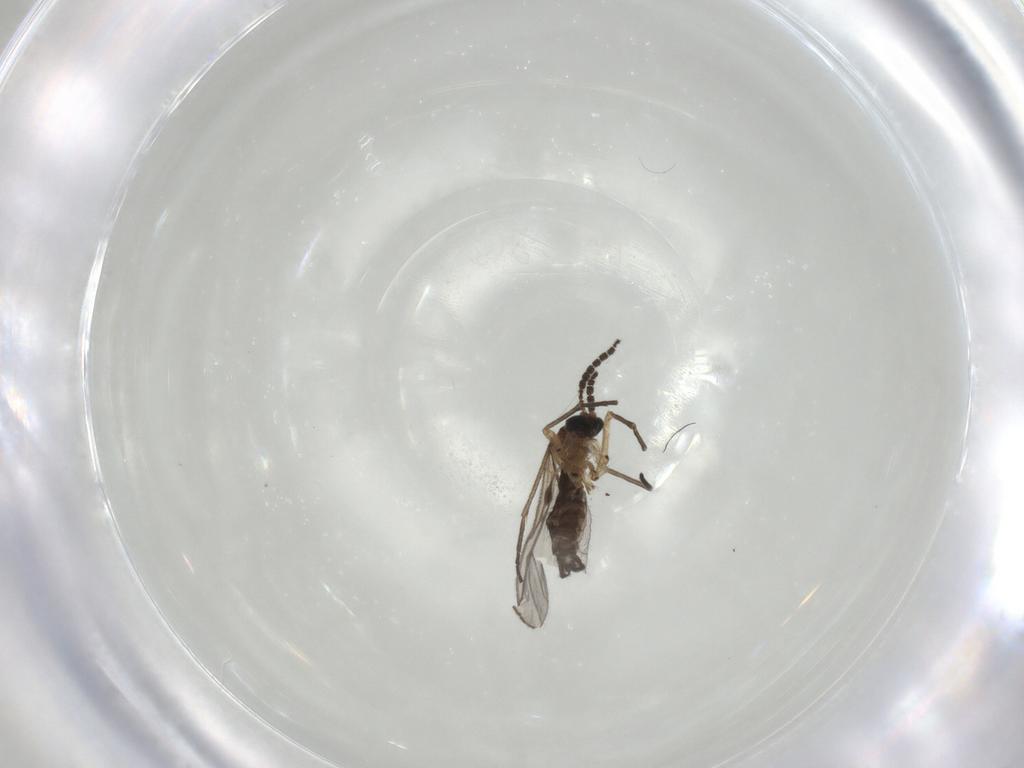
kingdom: Animalia
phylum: Arthropoda
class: Insecta
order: Diptera
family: Sciaridae
